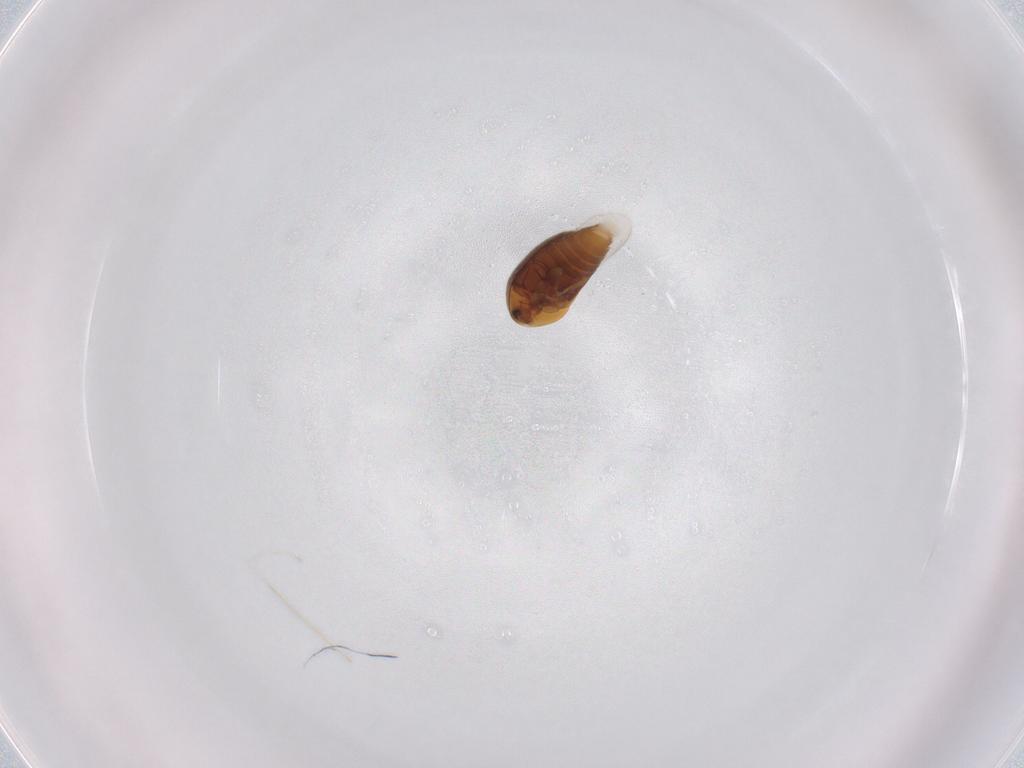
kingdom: Animalia
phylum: Arthropoda
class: Insecta
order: Coleoptera
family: Corylophidae
